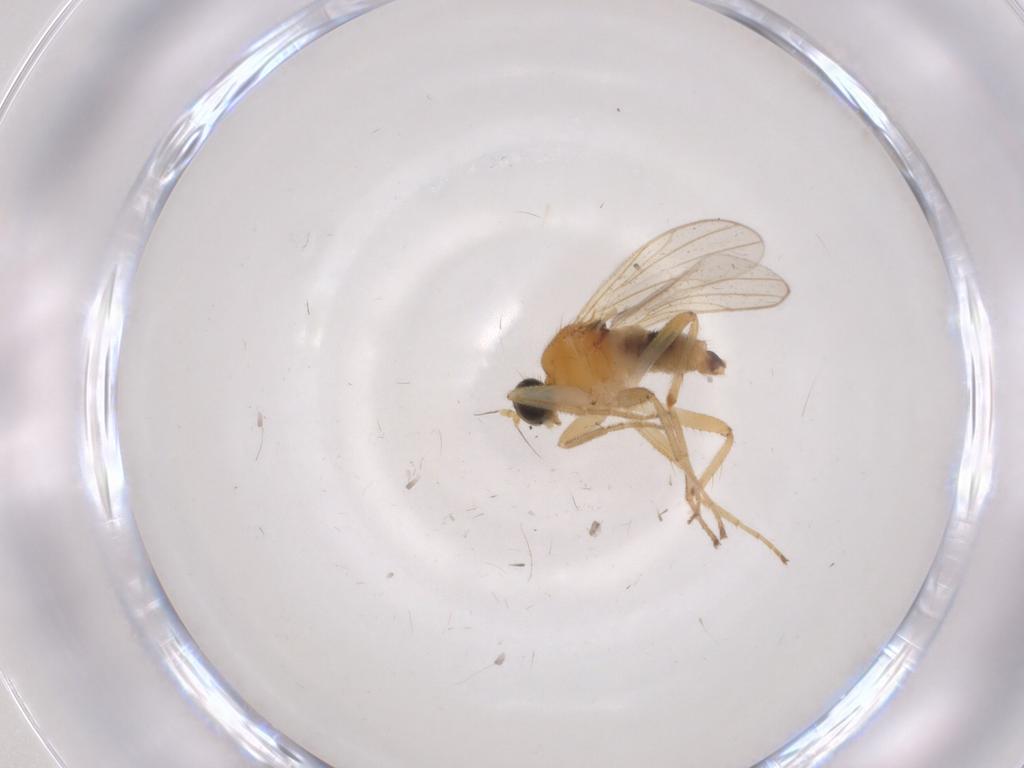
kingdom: Animalia
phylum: Arthropoda
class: Insecta
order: Diptera
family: Hybotidae
